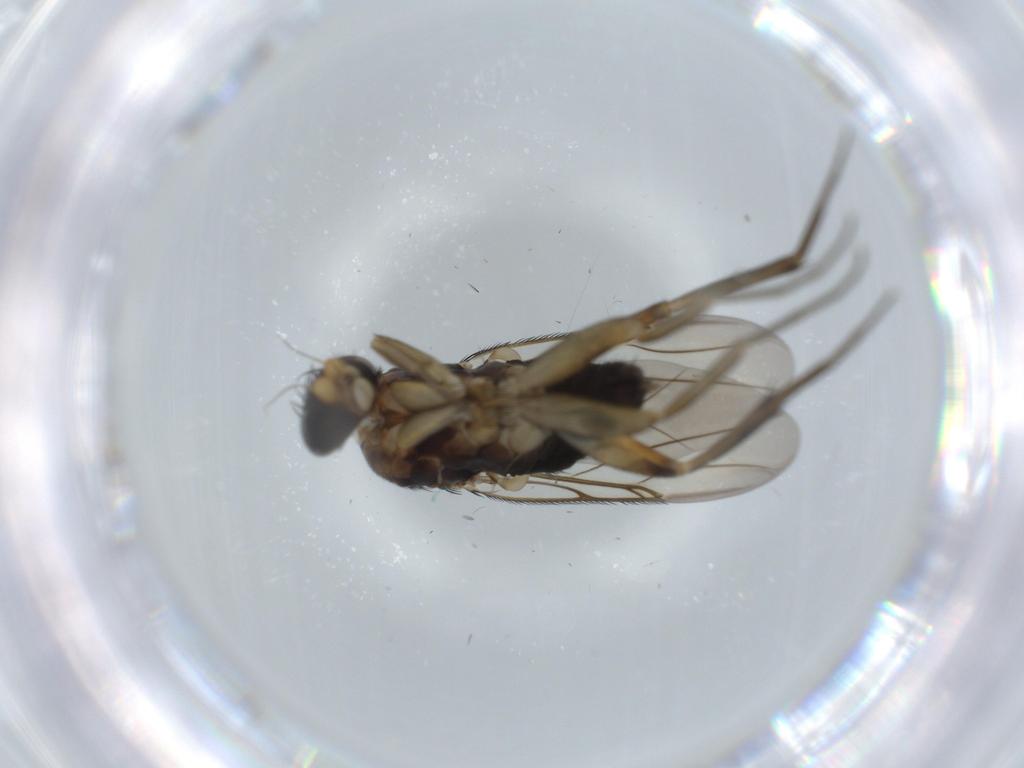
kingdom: Animalia
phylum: Arthropoda
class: Insecta
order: Diptera
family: Phoridae
